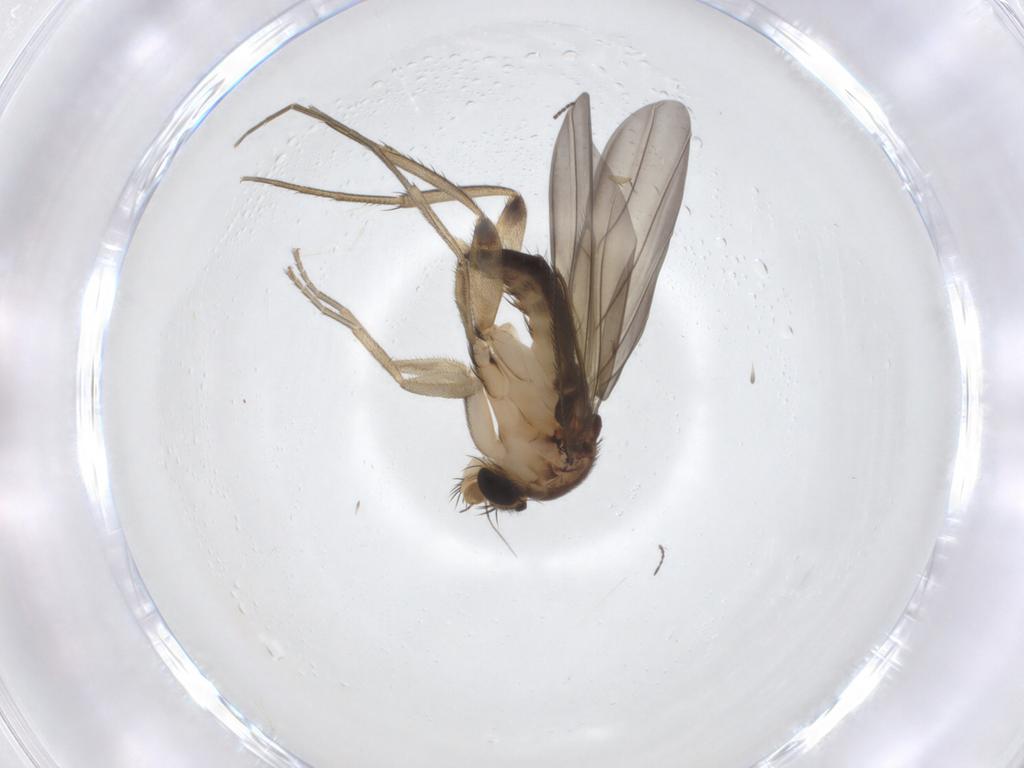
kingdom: Animalia
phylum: Arthropoda
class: Insecta
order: Diptera
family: Phoridae
